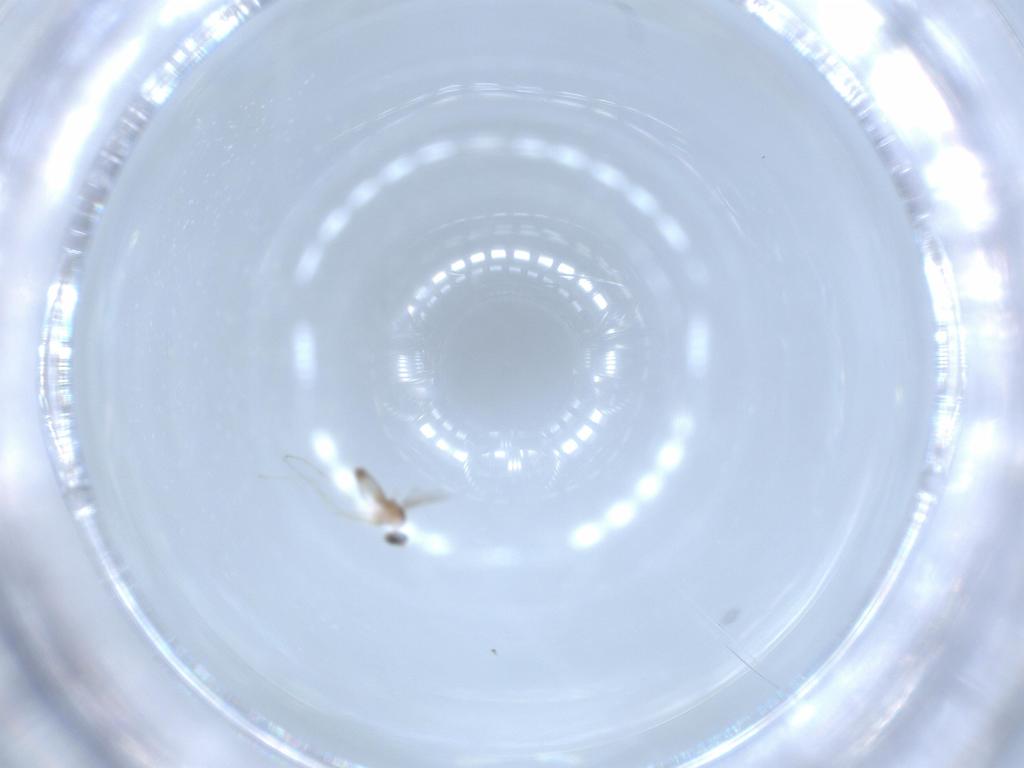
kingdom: Animalia
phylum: Arthropoda
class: Insecta
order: Diptera
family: Cecidomyiidae
